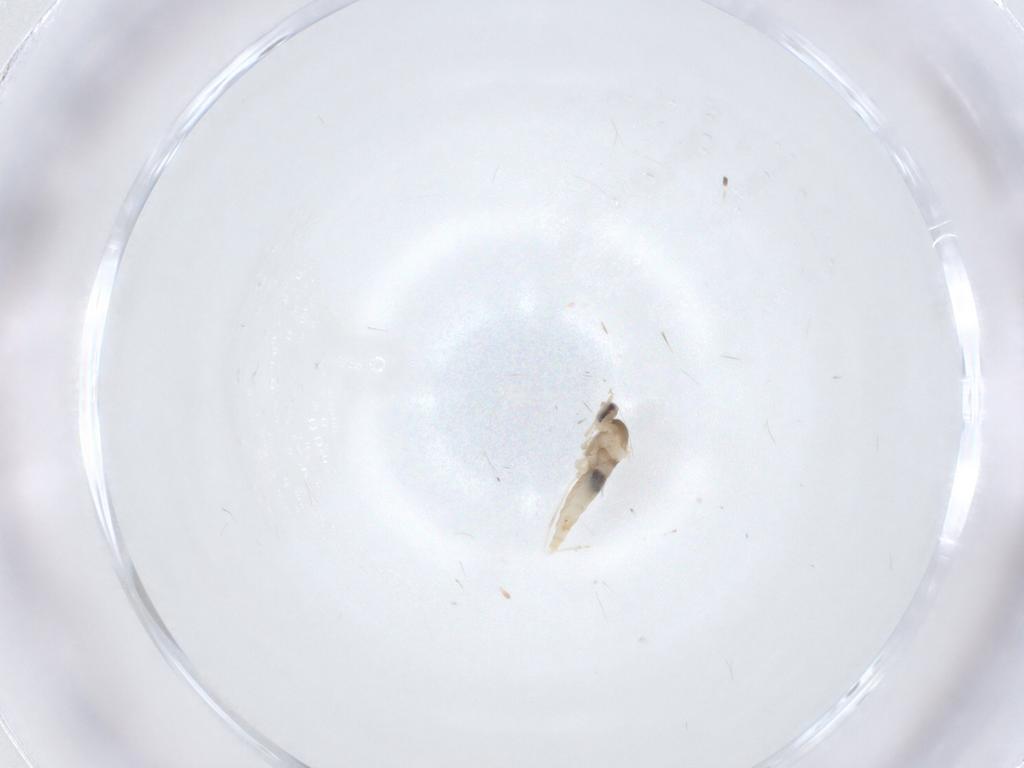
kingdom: Animalia
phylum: Arthropoda
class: Insecta
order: Diptera
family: Cecidomyiidae
